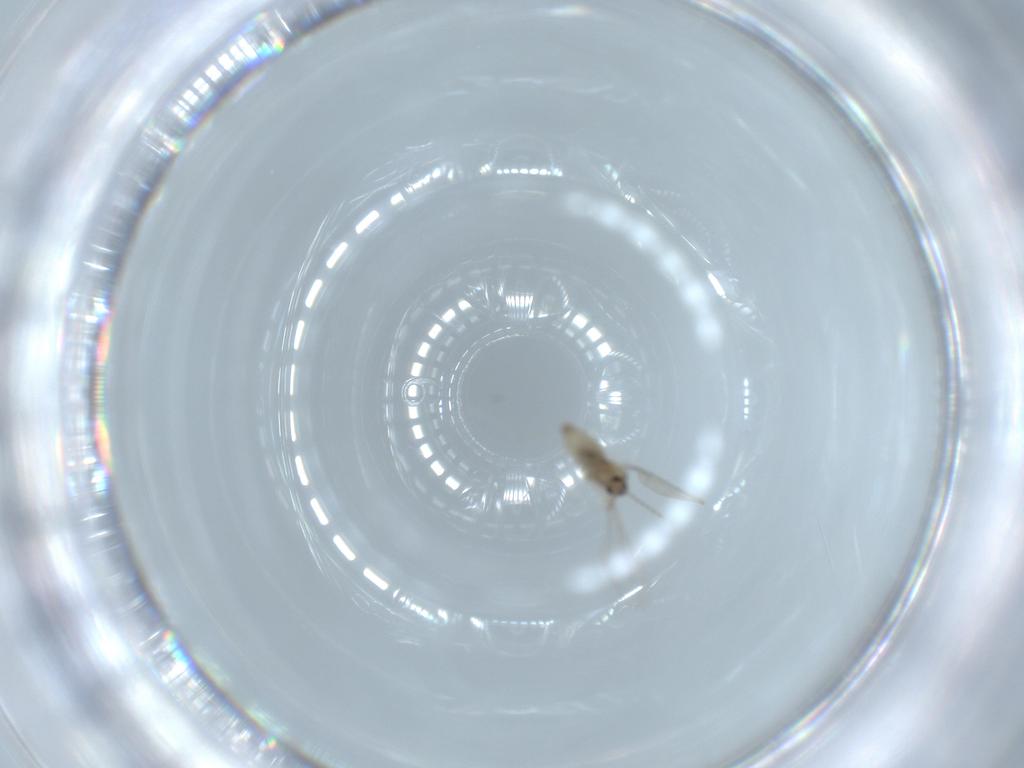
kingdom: Animalia
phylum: Arthropoda
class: Insecta
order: Diptera
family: Cecidomyiidae
